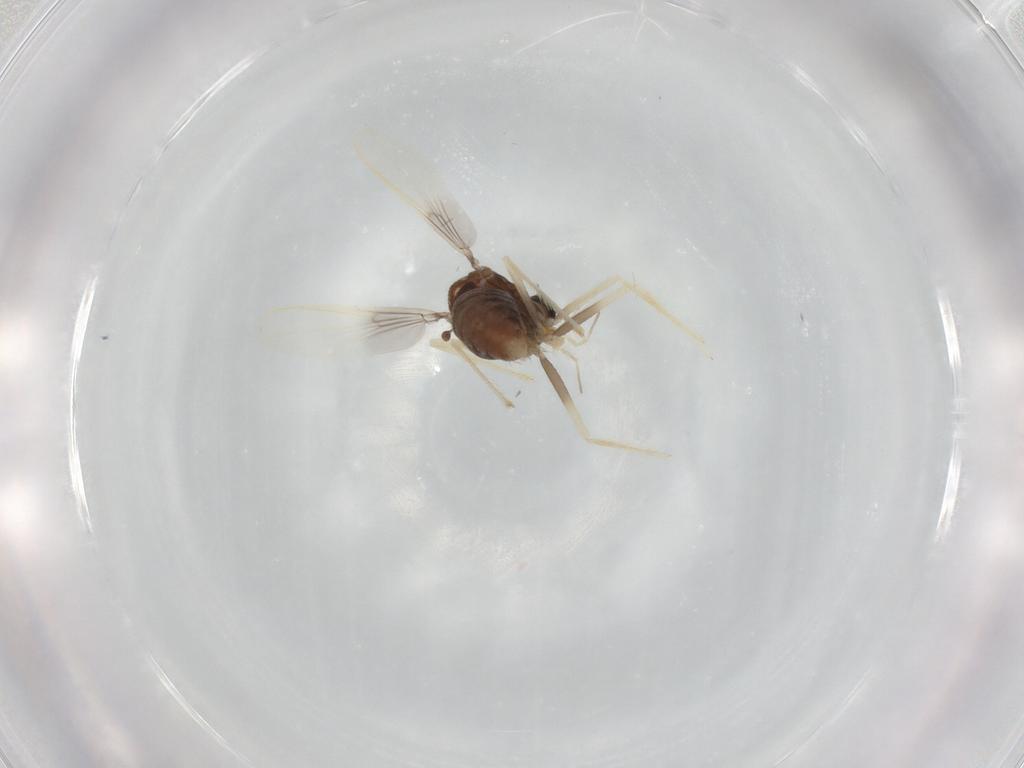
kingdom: Animalia
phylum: Arthropoda
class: Insecta
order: Diptera
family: Chironomidae
